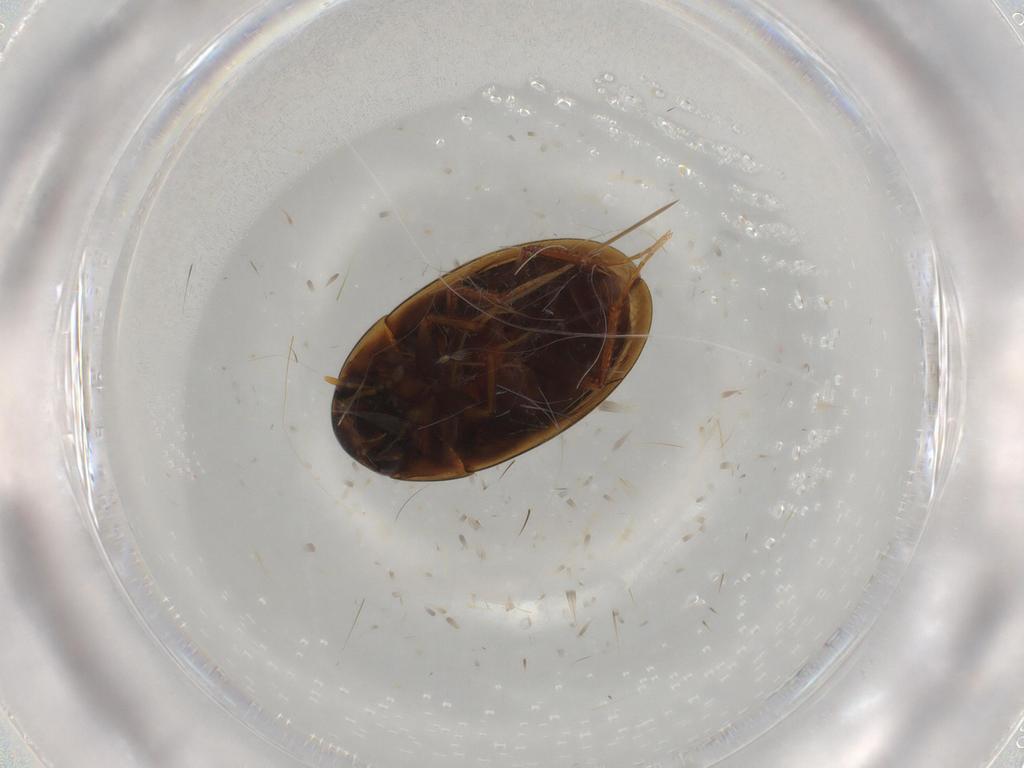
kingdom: Animalia
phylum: Arthropoda
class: Insecta
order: Coleoptera
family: Hydrophilidae
